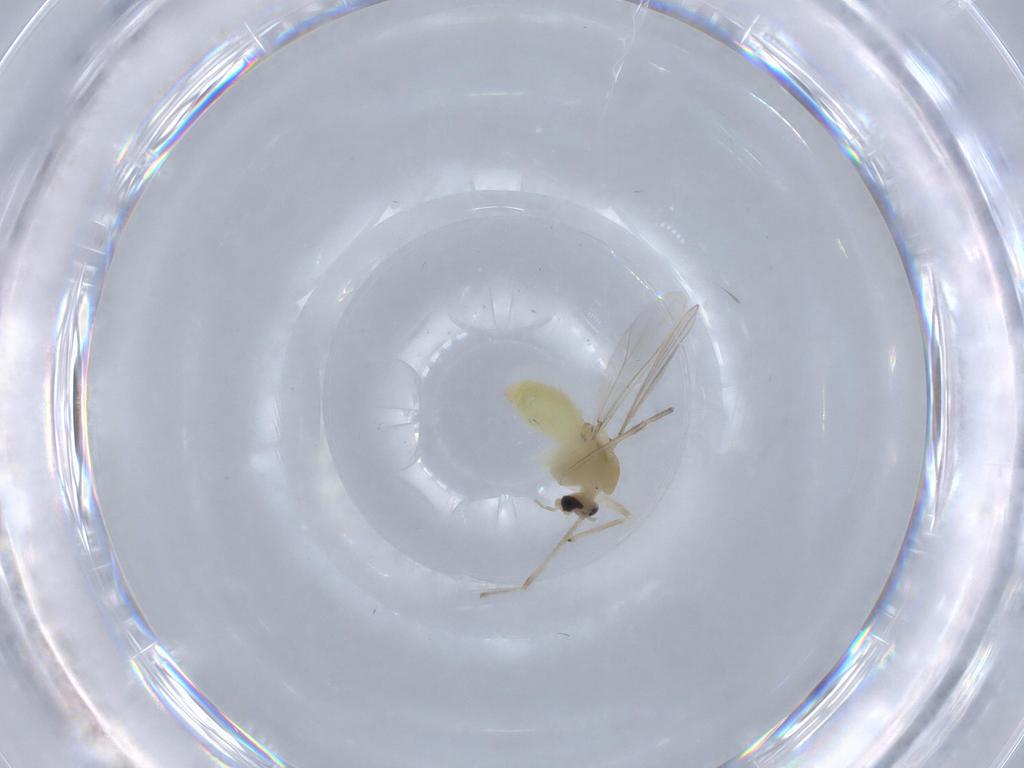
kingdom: Animalia
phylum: Arthropoda
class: Insecta
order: Diptera
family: Chironomidae
